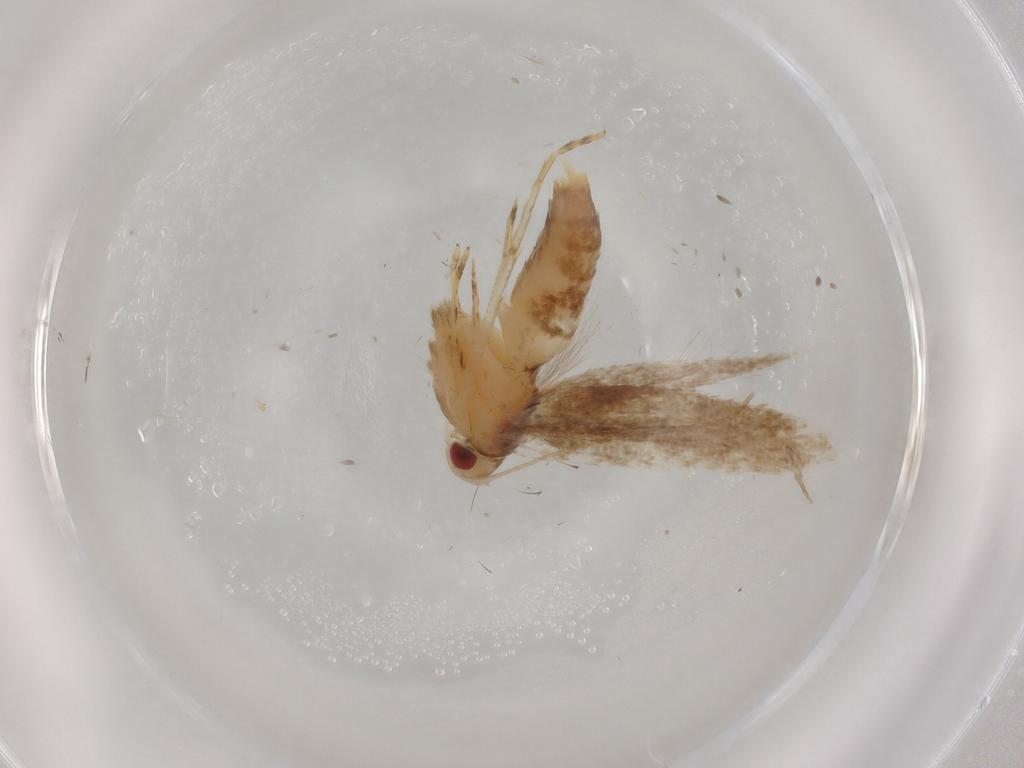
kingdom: Animalia
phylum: Arthropoda
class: Insecta
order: Lepidoptera
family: Cosmopterigidae
